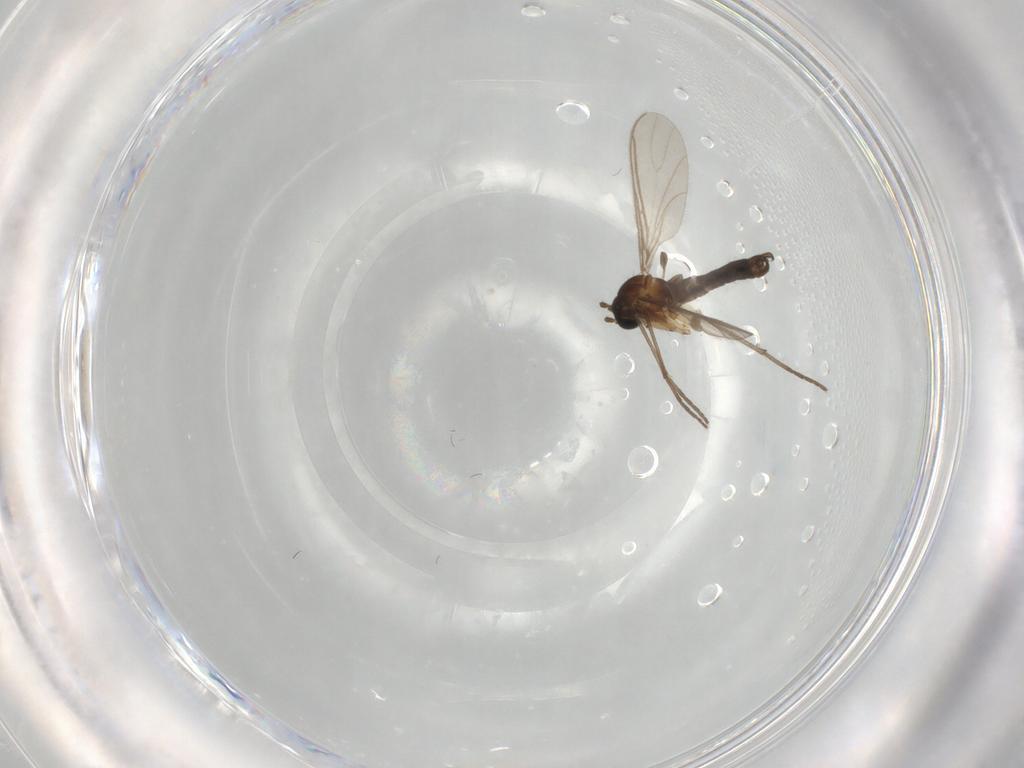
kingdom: Animalia
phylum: Arthropoda
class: Insecta
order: Diptera
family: Sciaridae
